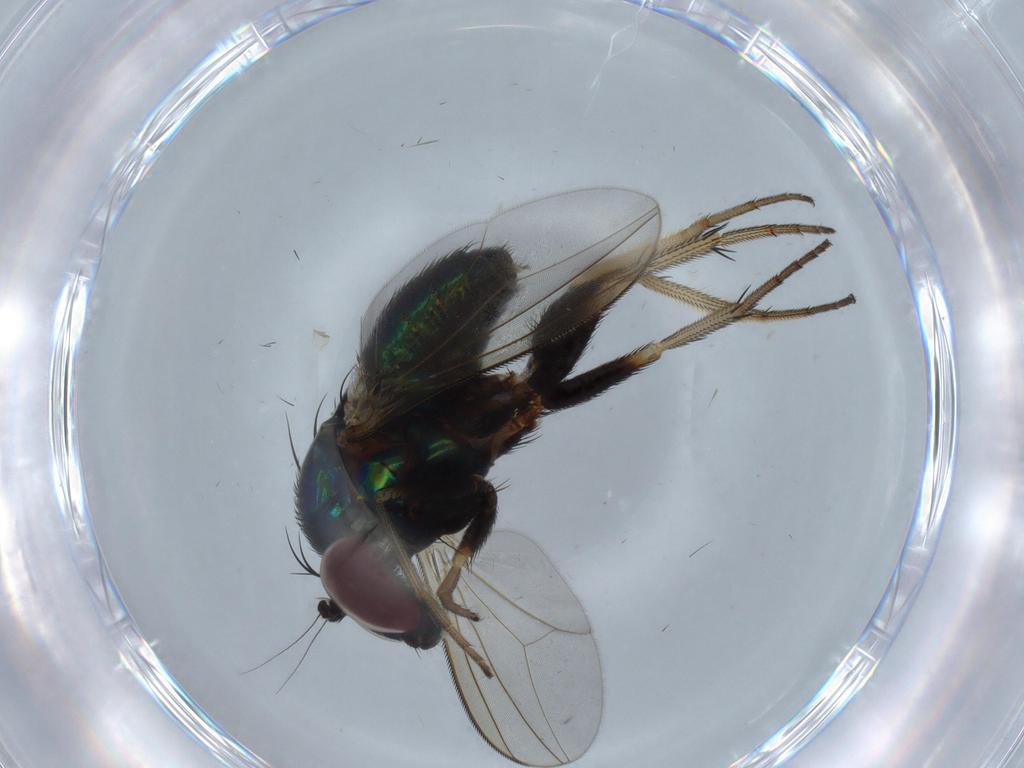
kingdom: Animalia
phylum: Arthropoda
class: Insecta
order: Diptera
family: Dolichopodidae
